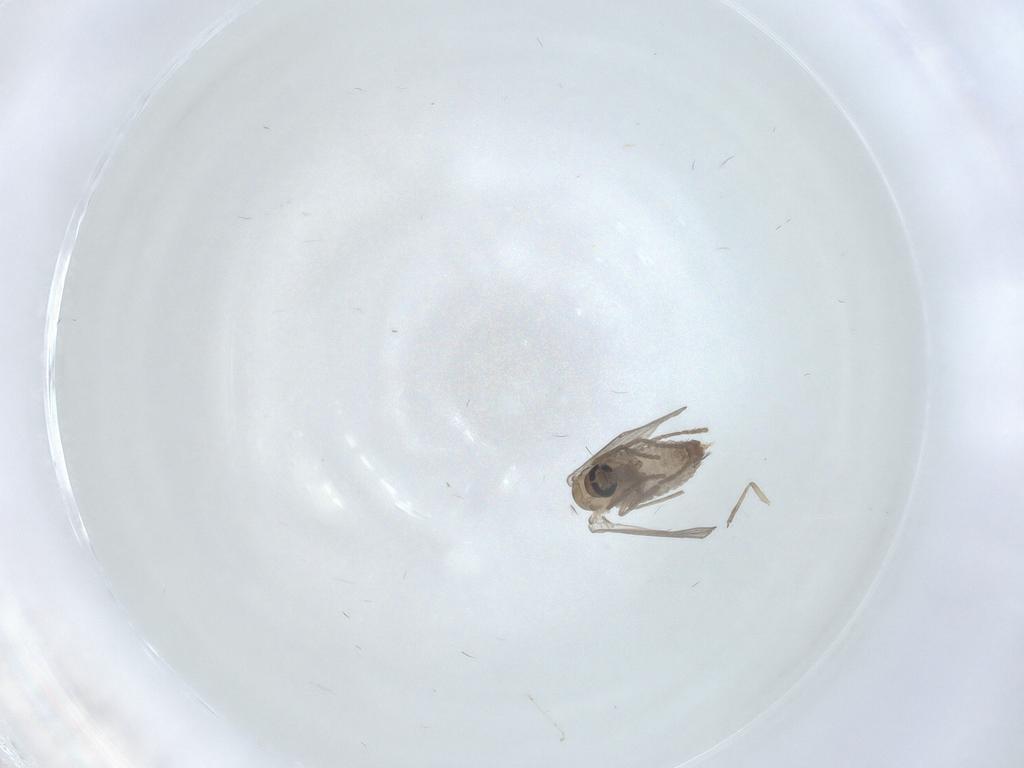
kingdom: Animalia
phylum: Arthropoda
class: Insecta
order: Diptera
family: Psychodidae
